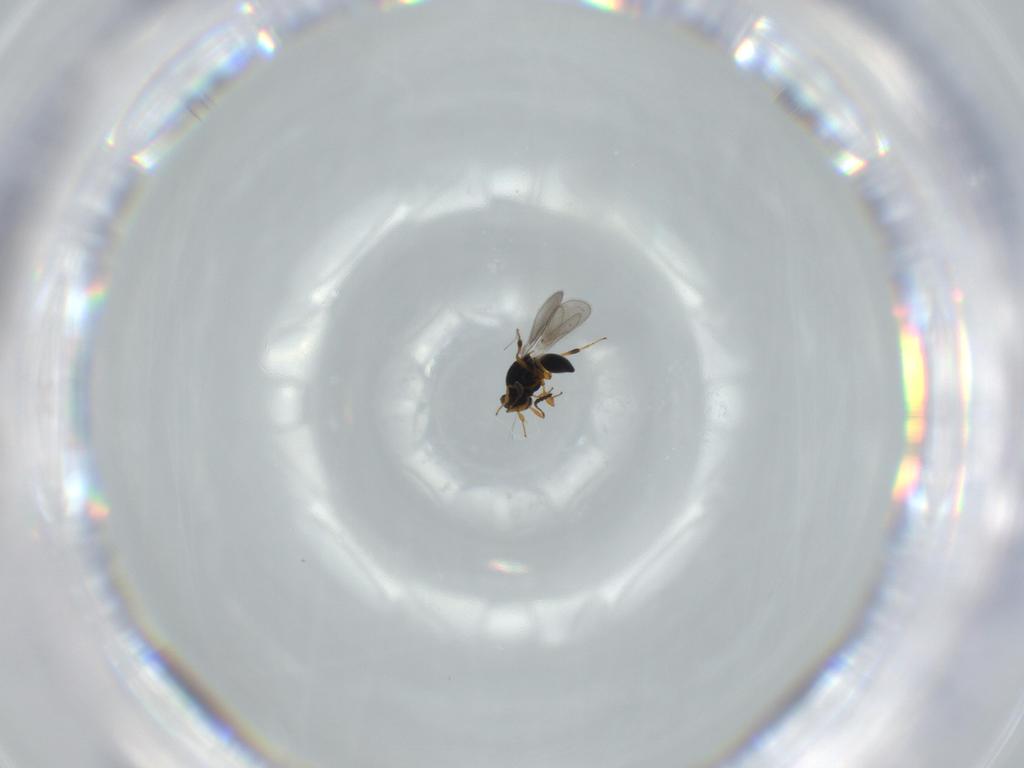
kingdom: Animalia
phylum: Arthropoda
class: Insecta
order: Hymenoptera
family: Platygastridae
